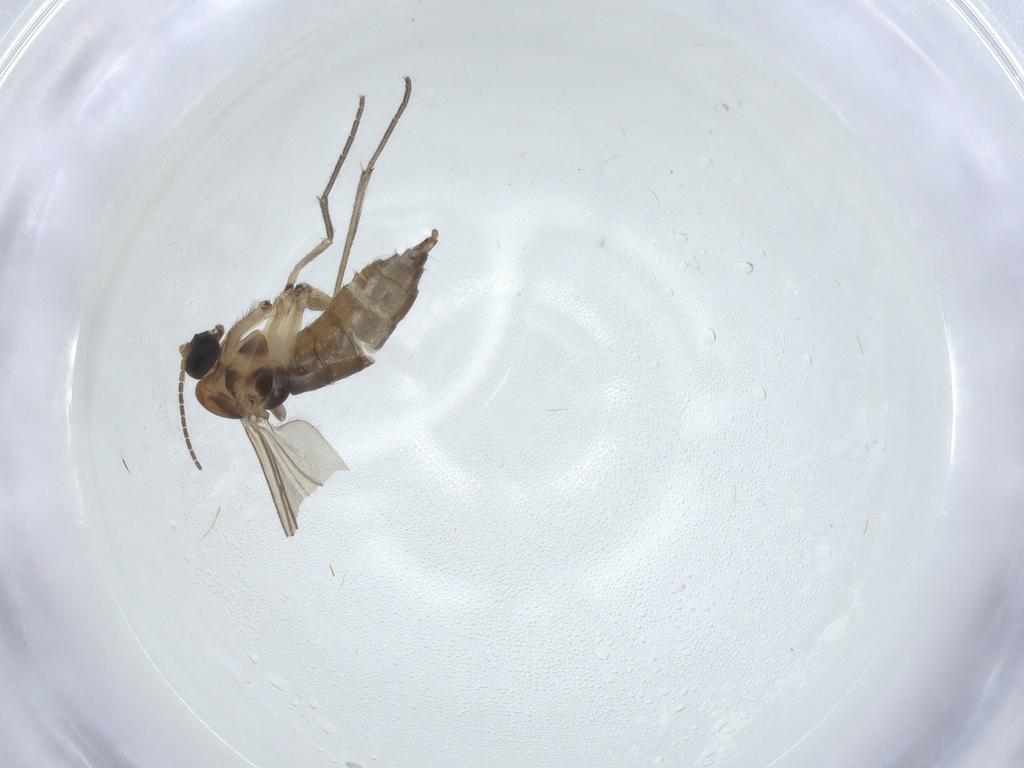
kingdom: Animalia
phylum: Arthropoda
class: Insecta
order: Diptera
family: Sciaridae
